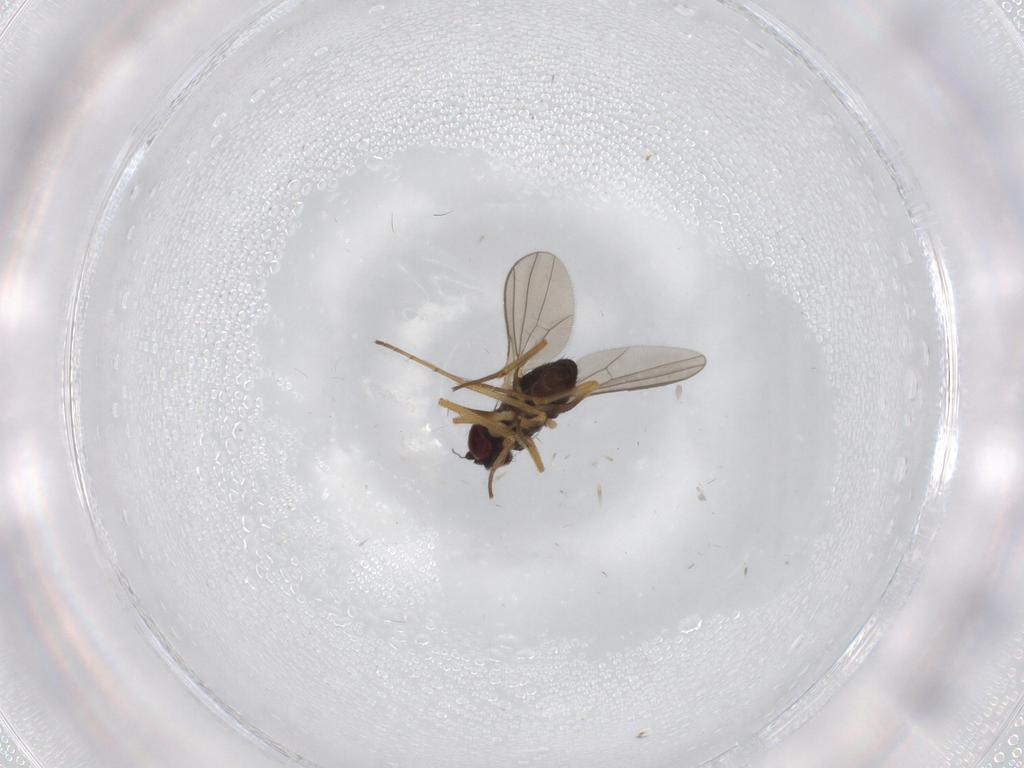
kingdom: Animalia
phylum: Arthropoda
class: Insecta
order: Diptera
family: Dolichopodidae
